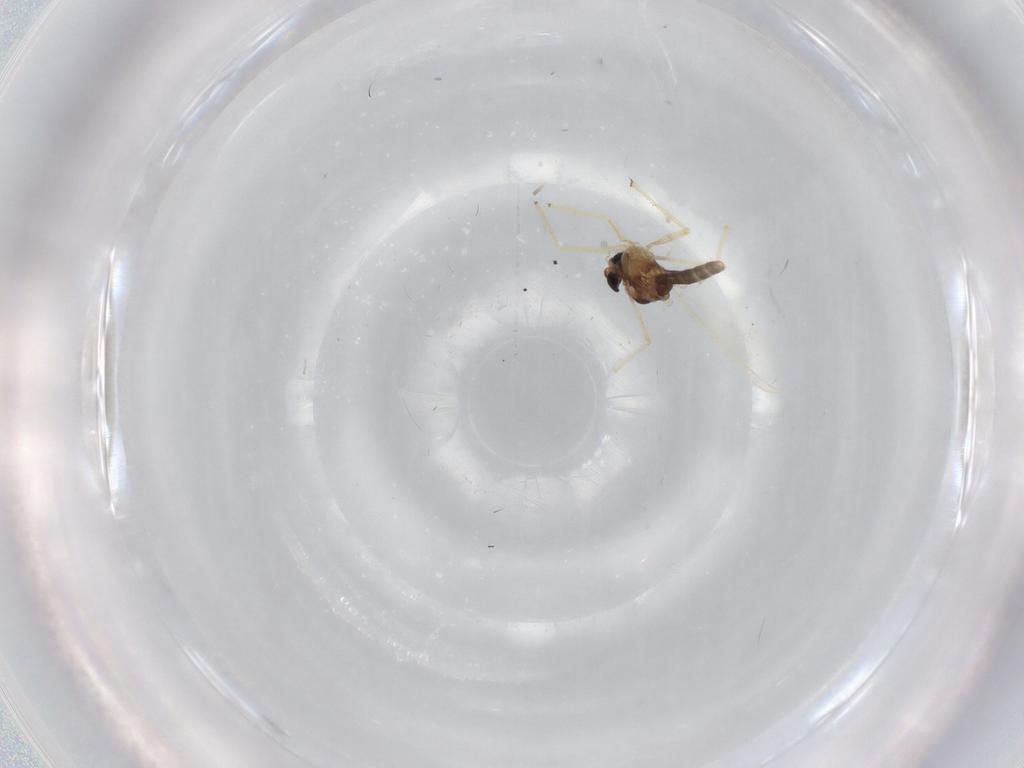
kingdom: Animalia
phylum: Arthropoda
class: Insecta
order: Diptera
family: Chironomidae
